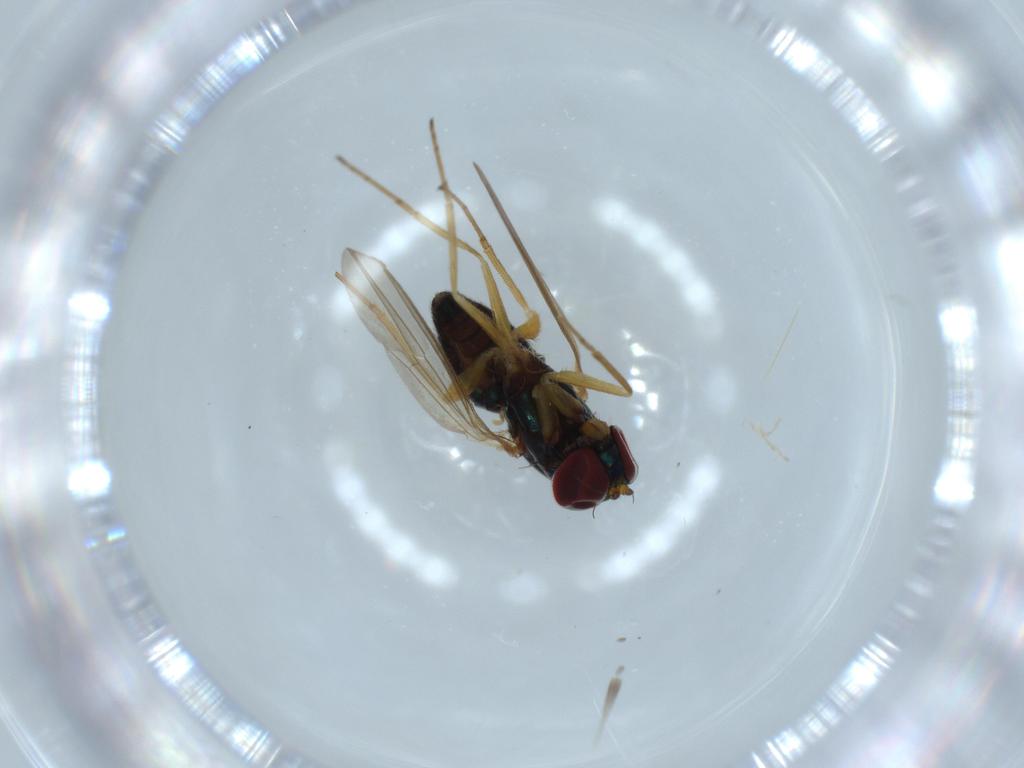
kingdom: Animalia
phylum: Arthropoda
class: Insecta
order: Diptera
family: Dolichopodidae
